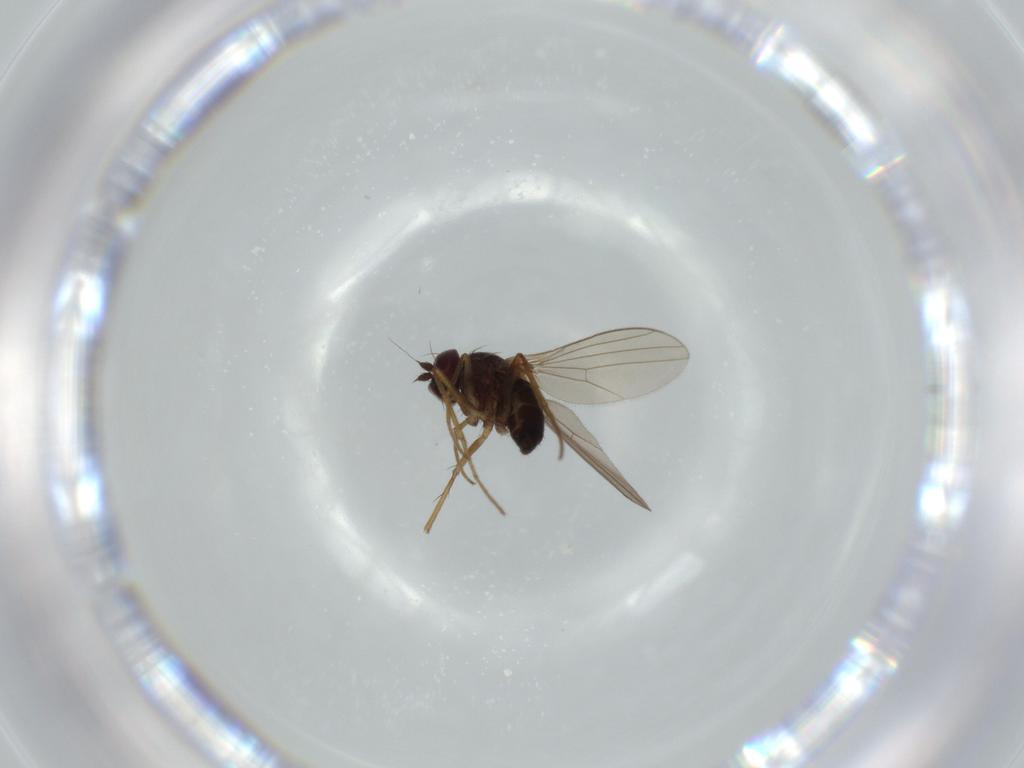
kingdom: Animalia
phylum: Arthropoda
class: Insecta
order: Diptera
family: Dolichopodidae
